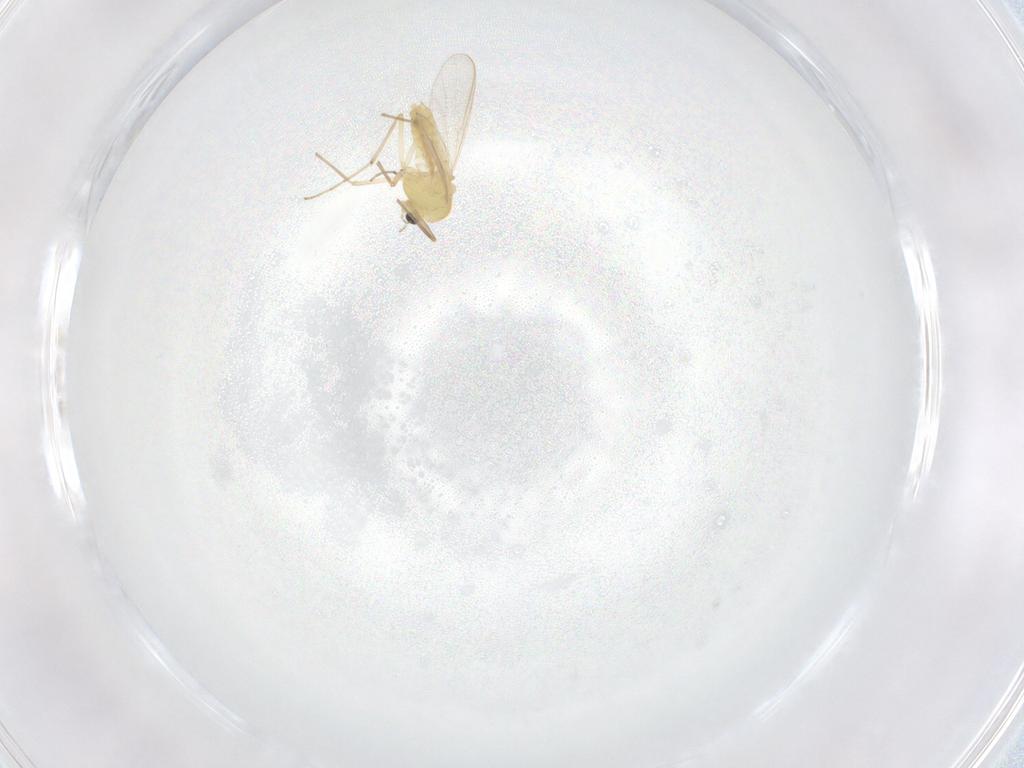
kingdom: Animalia
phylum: Arthropoda
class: Insecta
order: Diptera
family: Chironomidae
